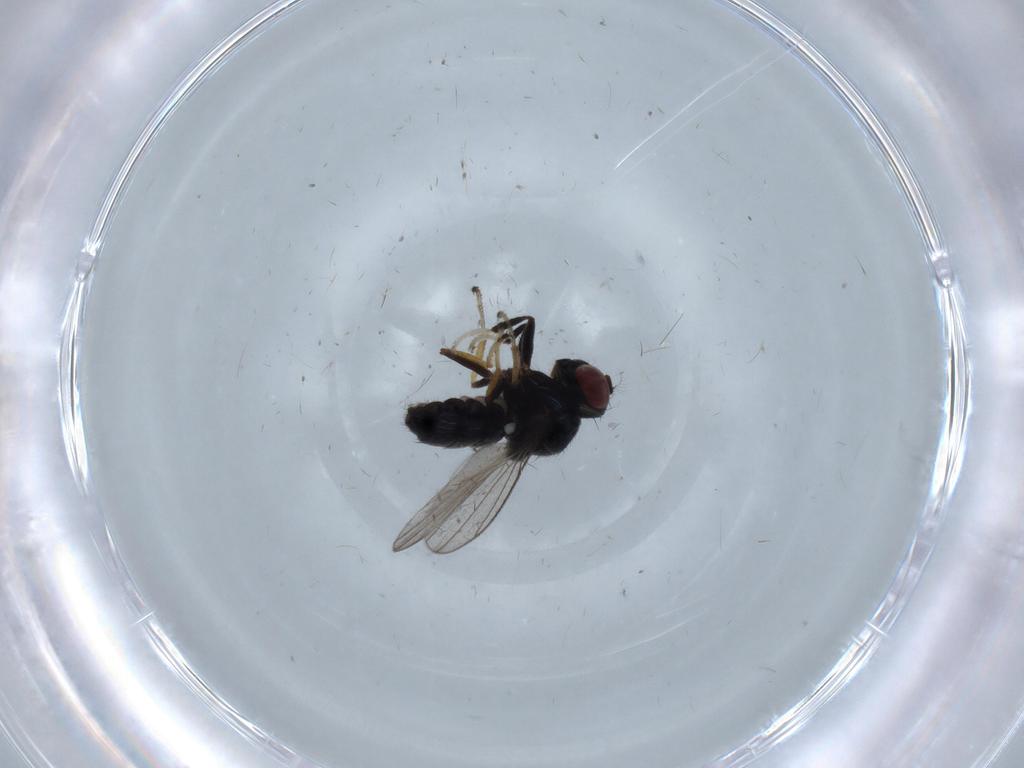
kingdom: Animalia
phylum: Arthropoda
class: Insecta
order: Diptera
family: Ephydridae
